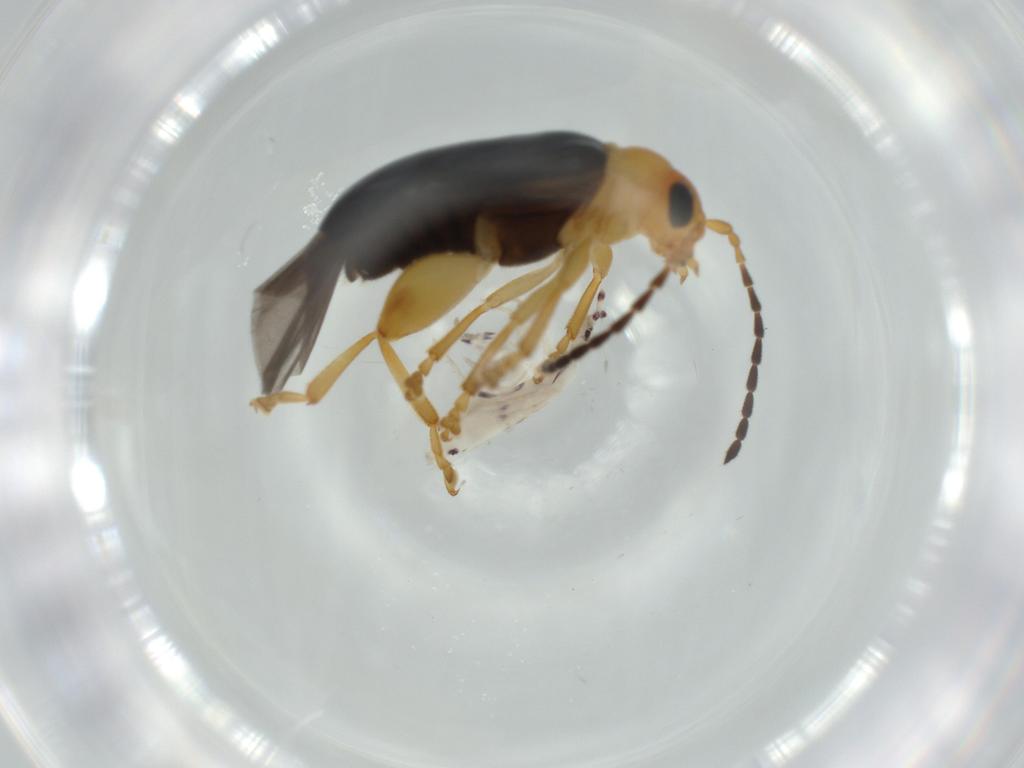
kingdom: Animalia
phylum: Arthropoda
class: Insecta
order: Coleoptera
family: Chrysomelidae
